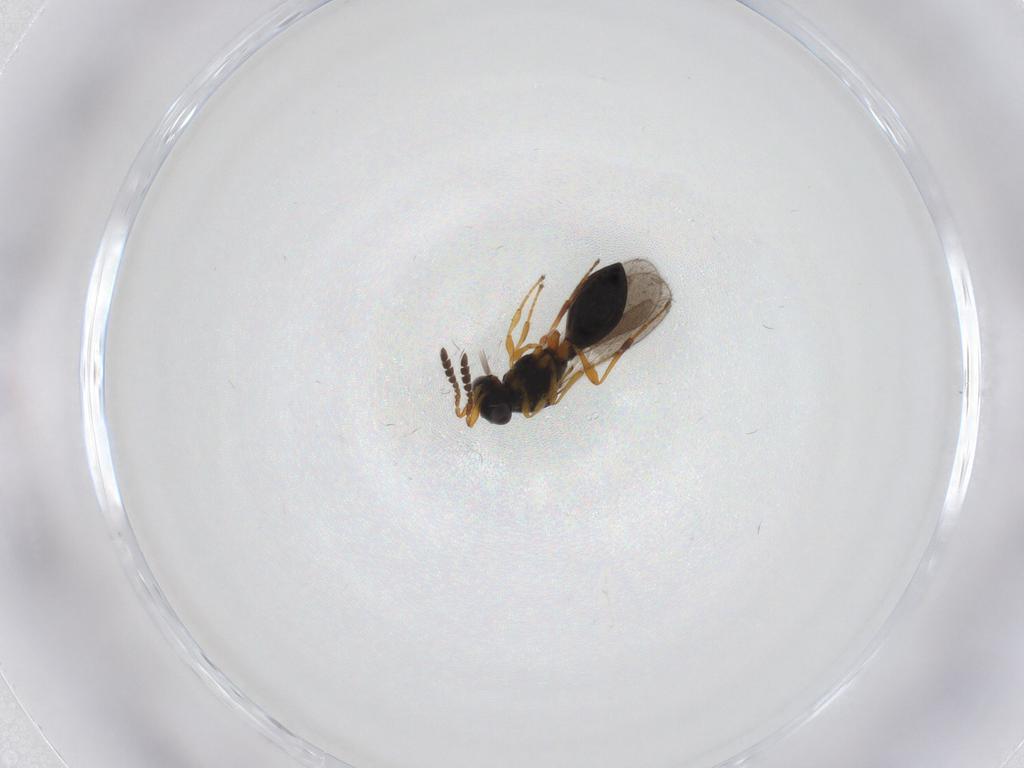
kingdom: Animalia
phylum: Arthropoda
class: Insecta
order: Hymenoptera
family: Platygastridae
